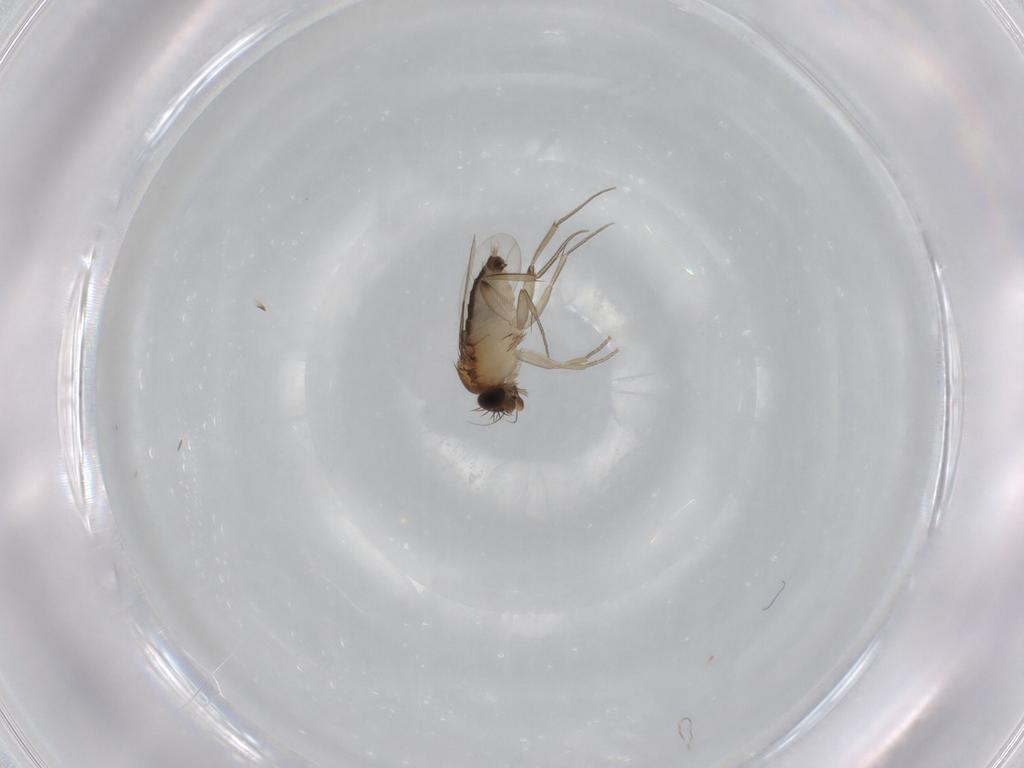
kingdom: Animalia
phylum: Arthropoda
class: Insecta
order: Diptera
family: Phoridae
